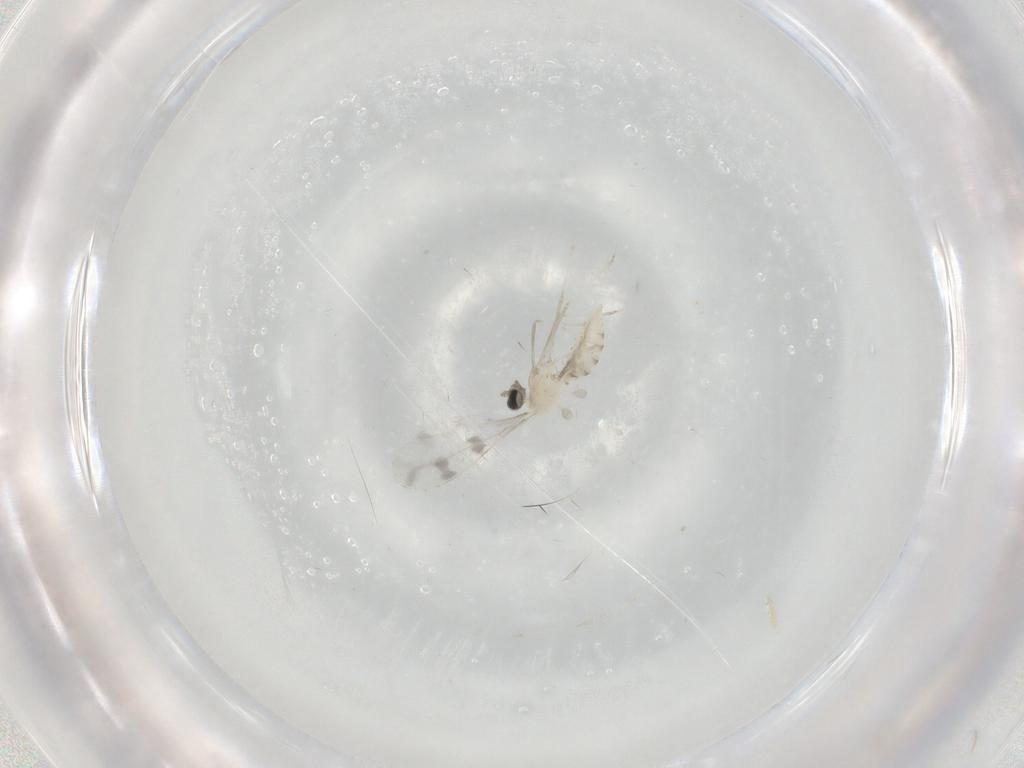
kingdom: Animalia
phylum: Arthropoda
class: Insecta
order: Diptera
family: Cecidomyiidae
